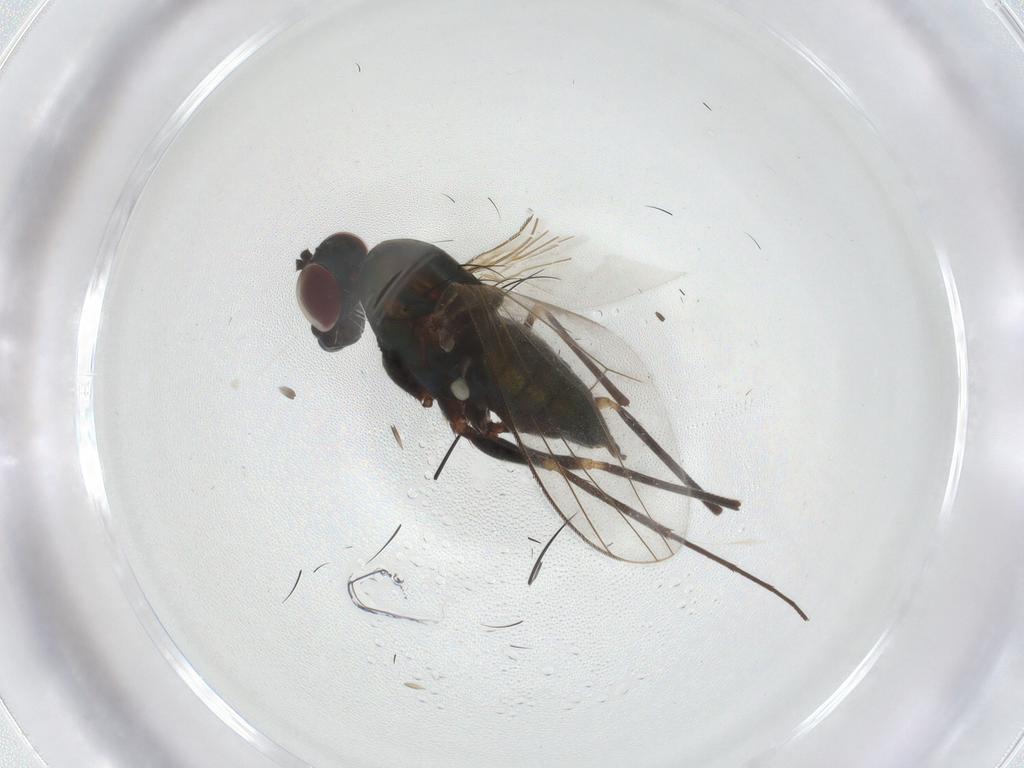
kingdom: Animalia
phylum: Arthropoda
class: Insecta
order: Diptera
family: Dolichopodidae
